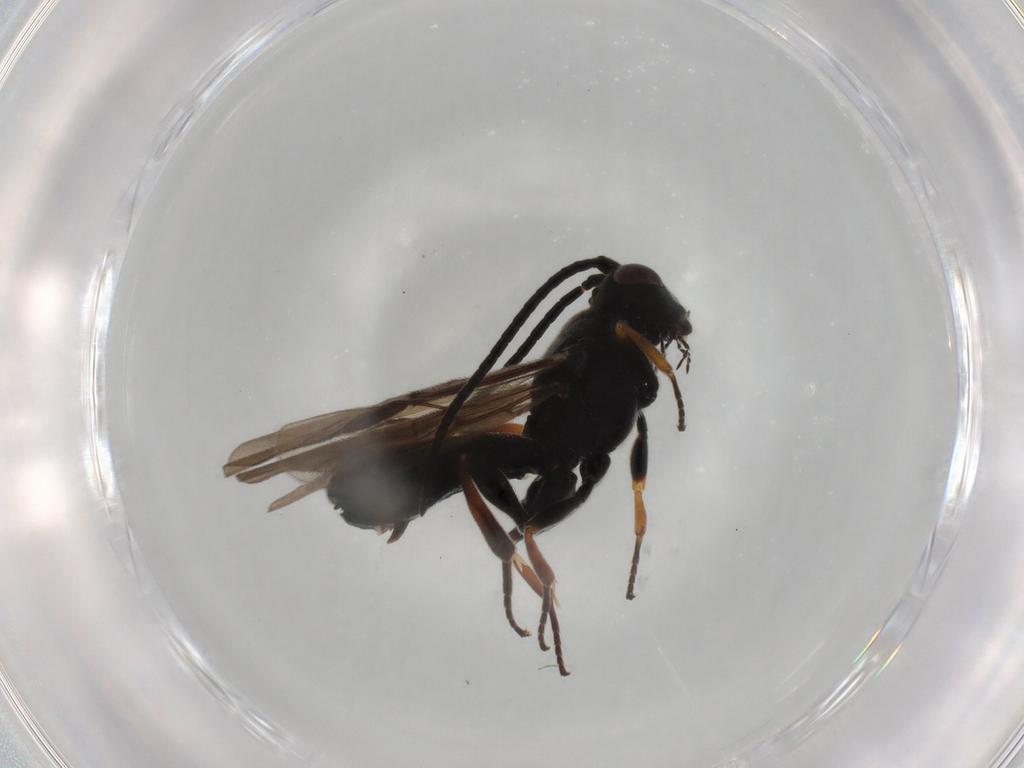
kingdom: Animalia
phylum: Arthropoda
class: Insecta
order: Hymenoptera
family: Braconidae
